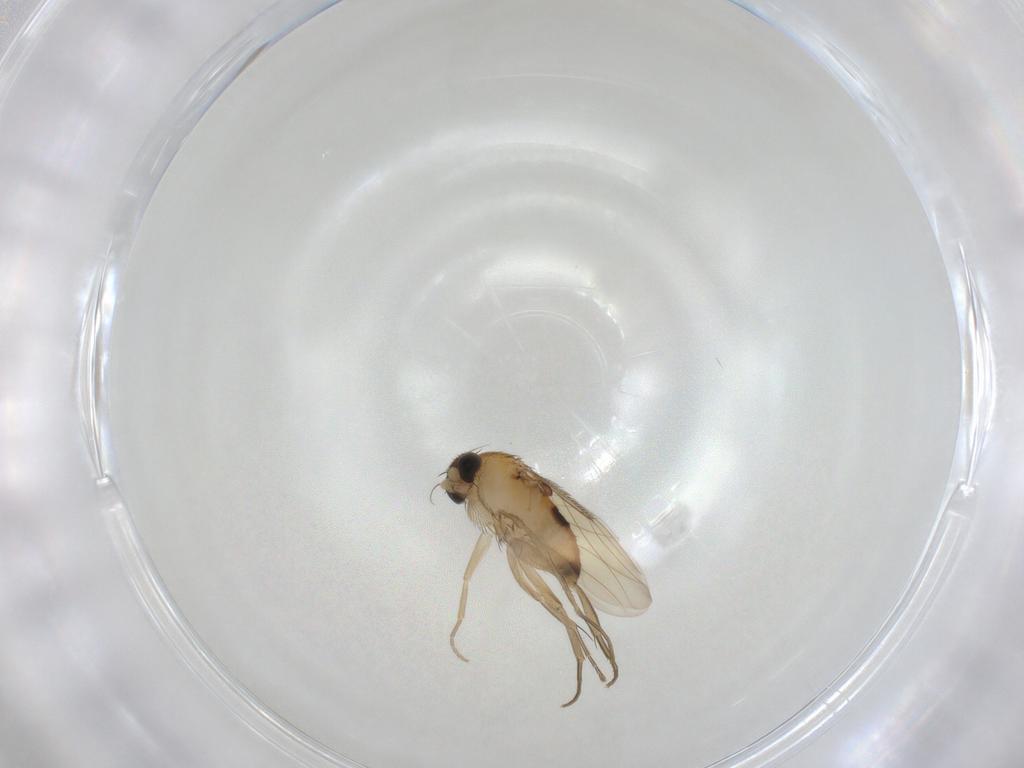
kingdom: Animalia
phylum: Arthropoda
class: Insecta
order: Diptera
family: Phoridae
